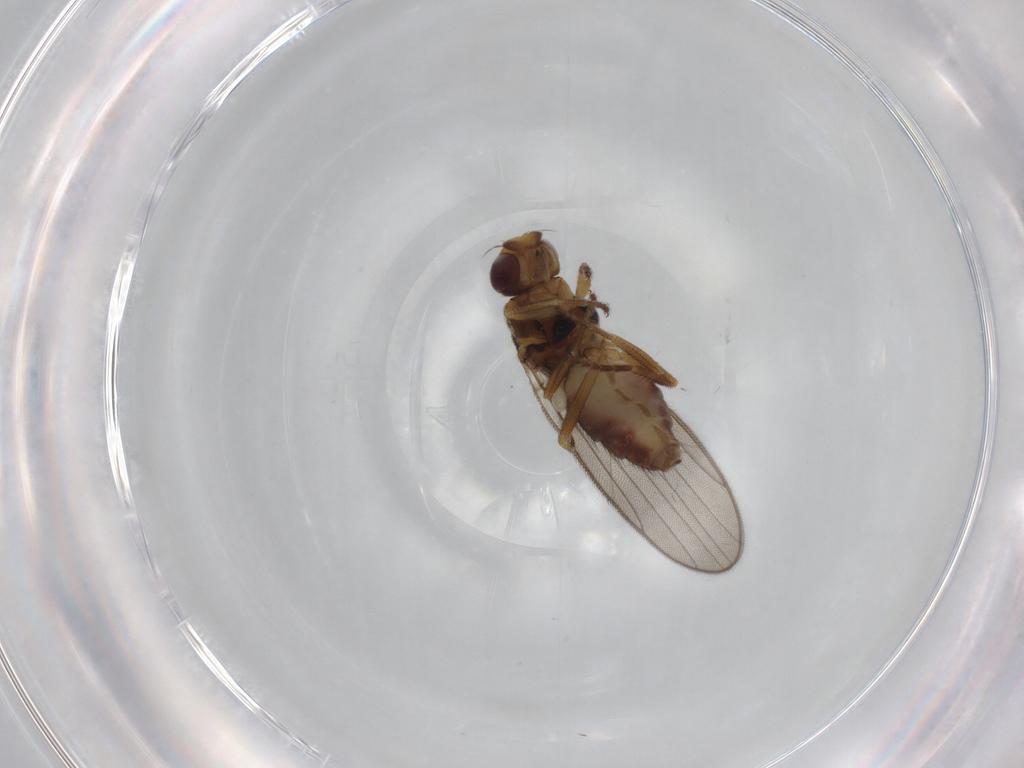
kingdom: Animalia
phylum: Arthropoda
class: Insecta
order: Diptera
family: Chloropidae
